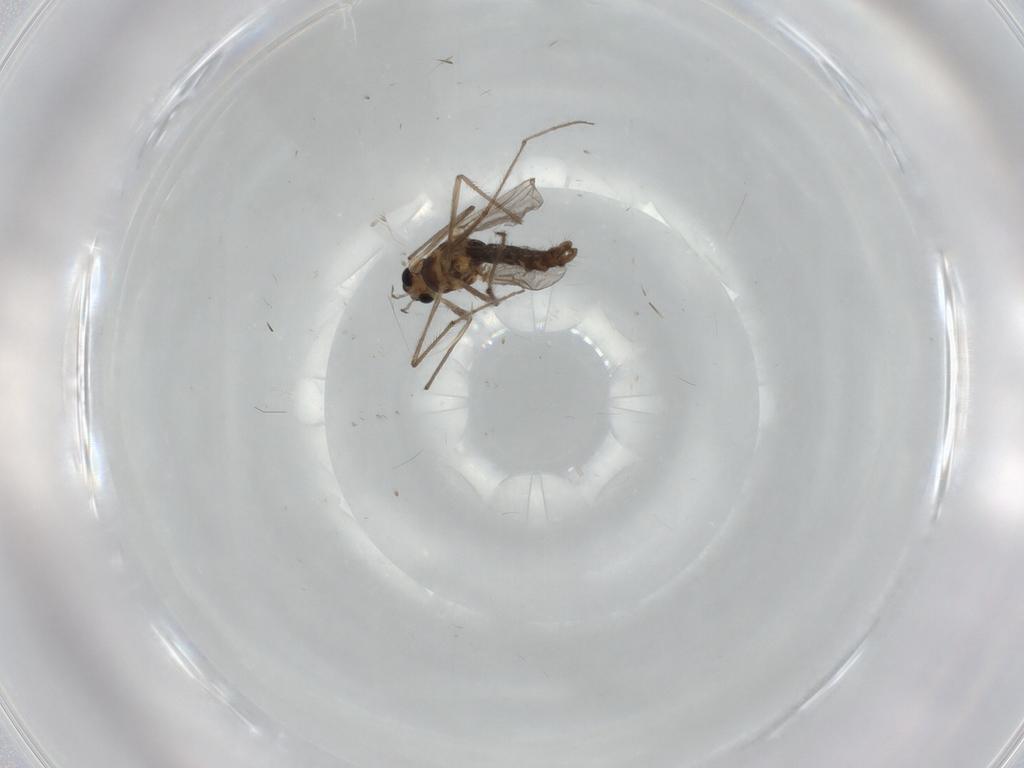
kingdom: Animalia
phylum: Arthropoda
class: Insecta
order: Diptera
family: Chironomidae
